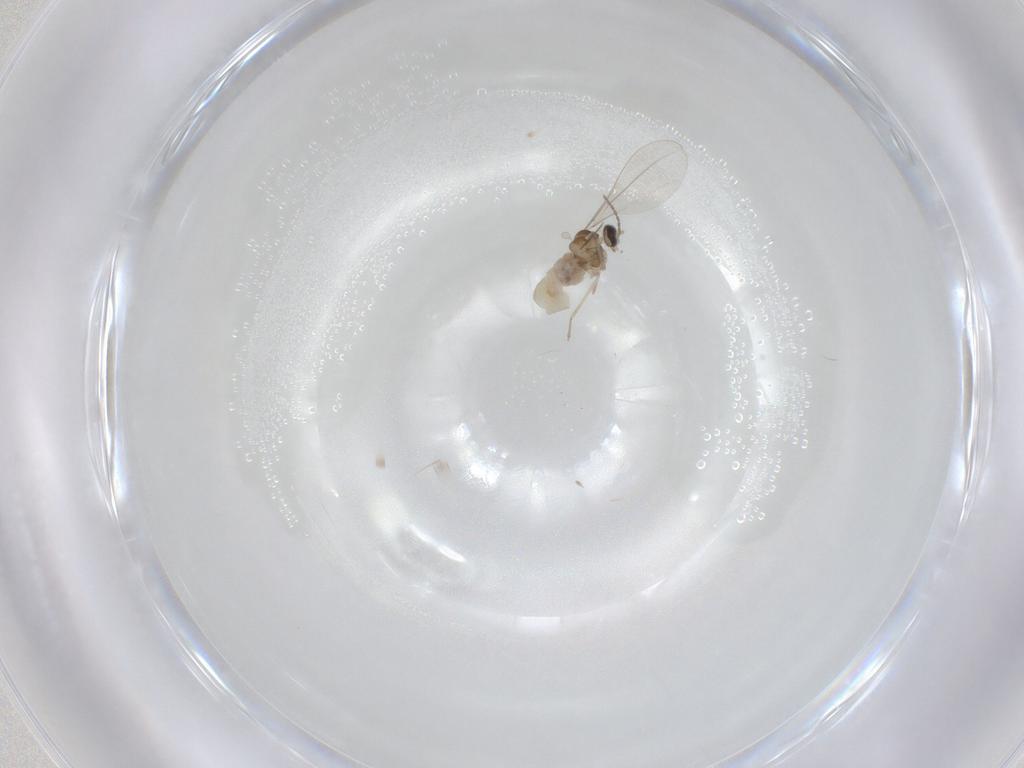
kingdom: Animalia
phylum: Arthropoda
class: Insecta
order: Diptera
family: Cecidomyiidae
